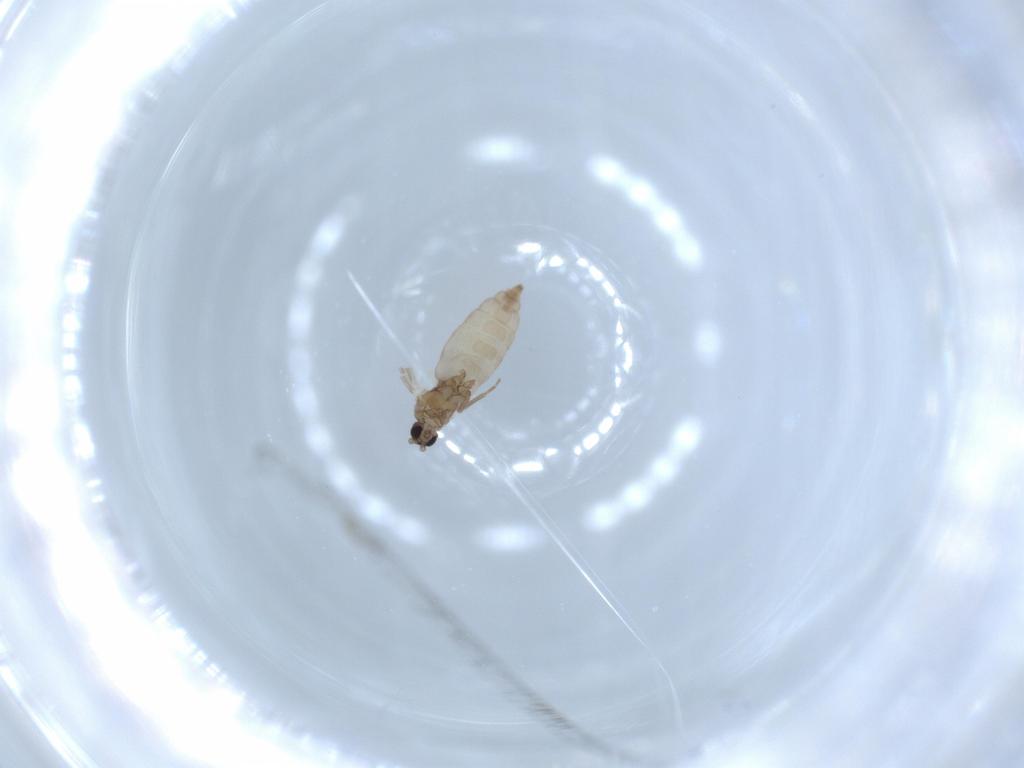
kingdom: Animalia
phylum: Arthropoda
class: Insecta
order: Diptera
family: Chironomidae
